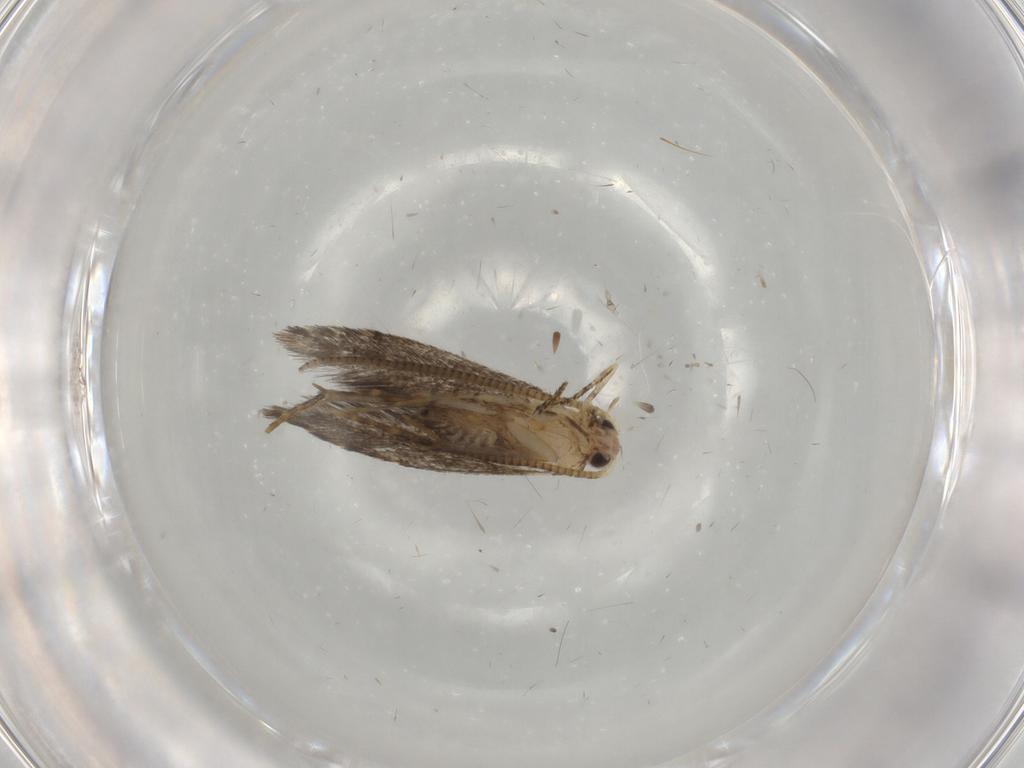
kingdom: Animalia
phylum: Arthropoda
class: Insecta
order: Lepidoptera
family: Tineidae
